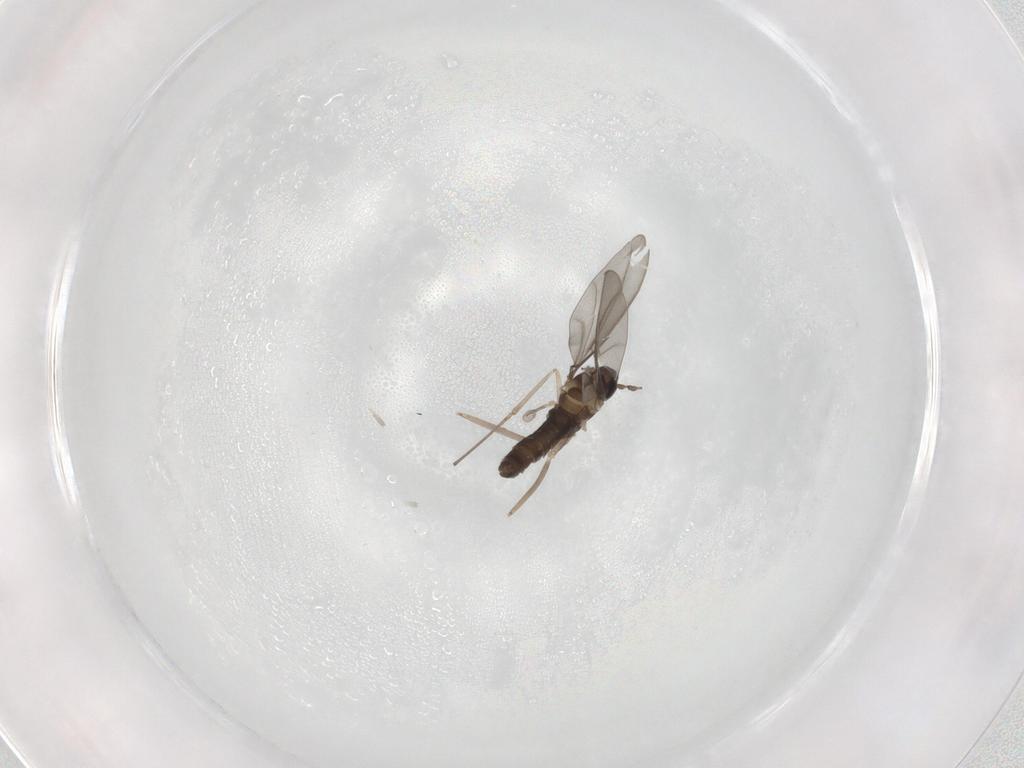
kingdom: Animalia
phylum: Arthropoda
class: Insecta
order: Diptera
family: Cecidomyiidae
